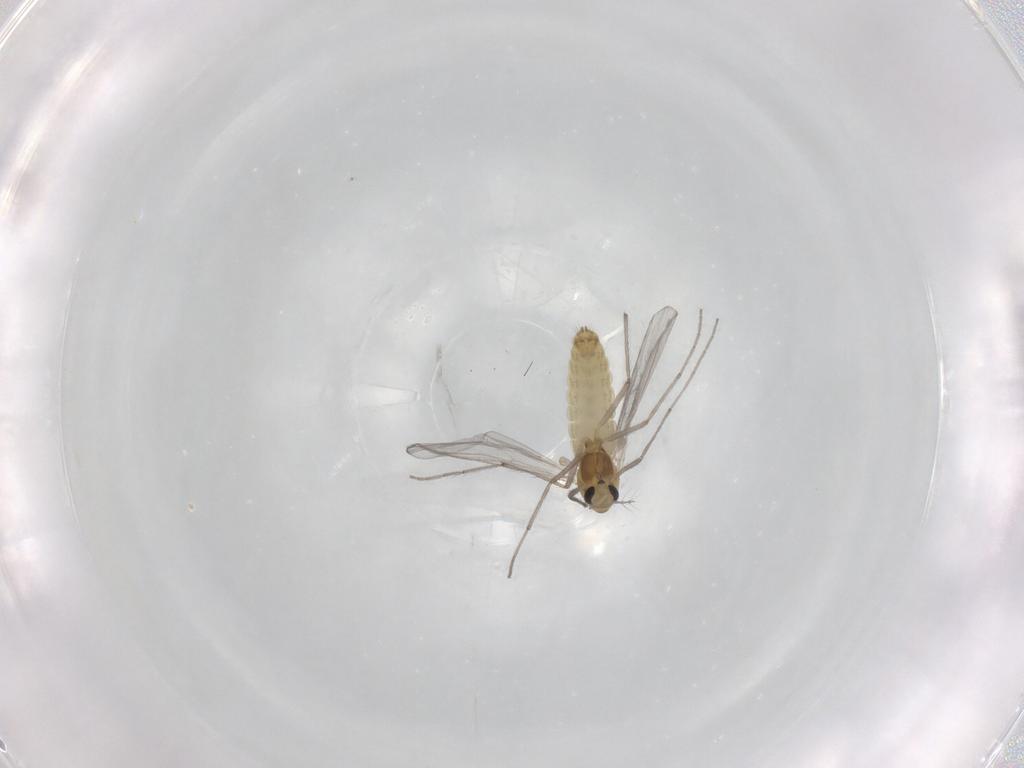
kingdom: Animalia
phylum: Arthropoda
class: Insecta
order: Diptera
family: Chironomidae
